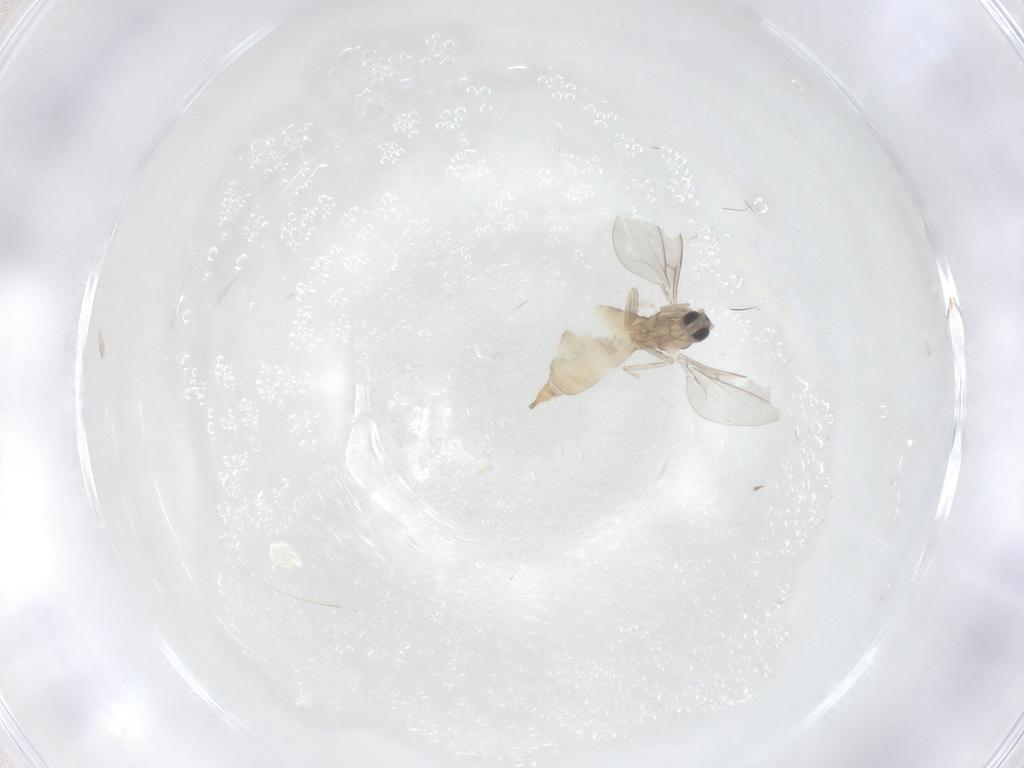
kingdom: Animalia
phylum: Arthropoda
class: Insecta
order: Diptera
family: Cecidomyiidae
